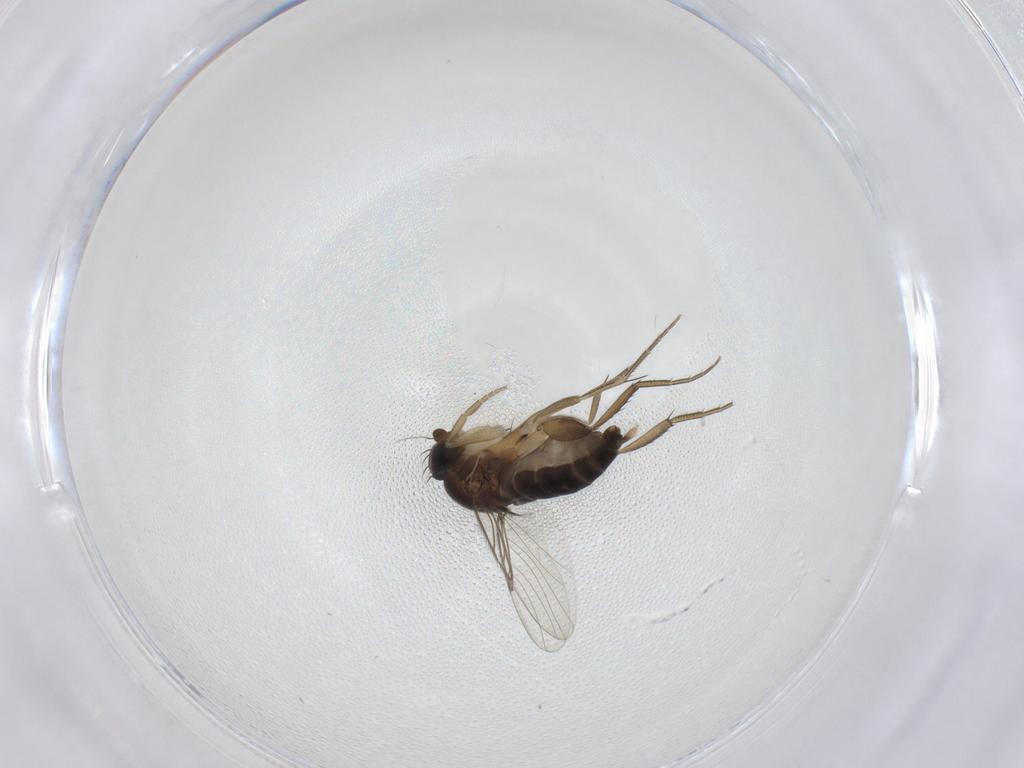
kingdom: Animalia
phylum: Arthropoda
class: Insecta
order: Diptera
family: Phoridae
